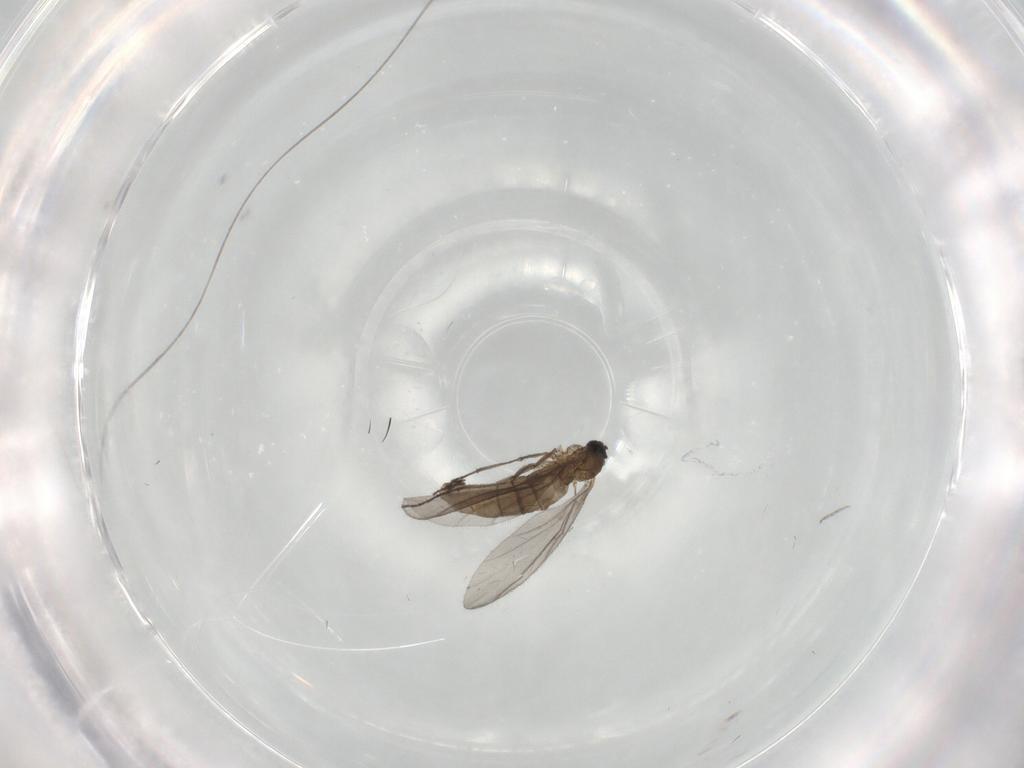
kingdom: Animalia
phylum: Arthropoda
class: Insecta
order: Diptera
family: Sciaridae
